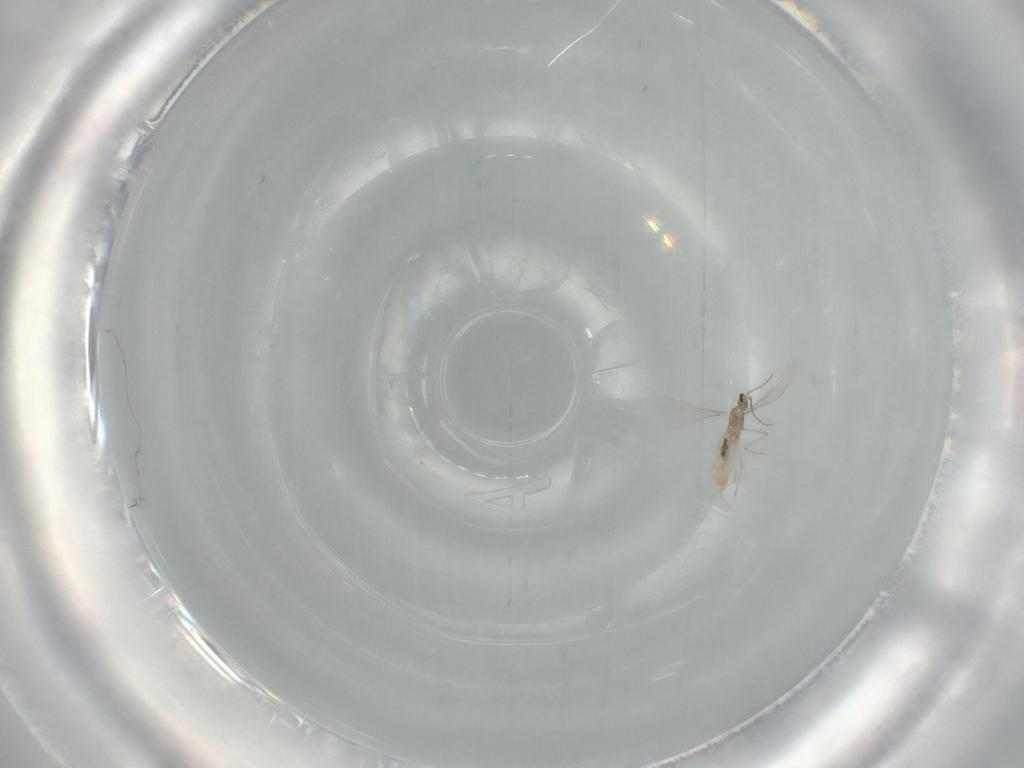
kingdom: Animalia
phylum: Arthropoda
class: Insecta
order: Diptera
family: Cecidomyiidae
